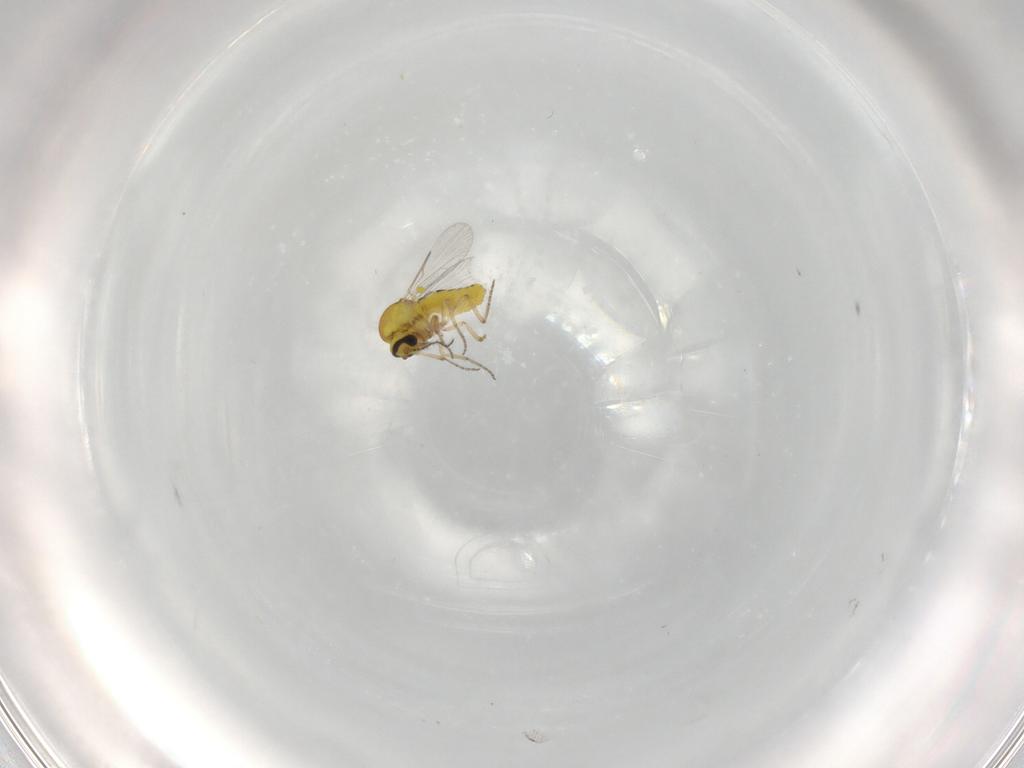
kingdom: Animalia
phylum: Arthropoda
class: Insecta
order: Diptera
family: Ceratopogonidae
